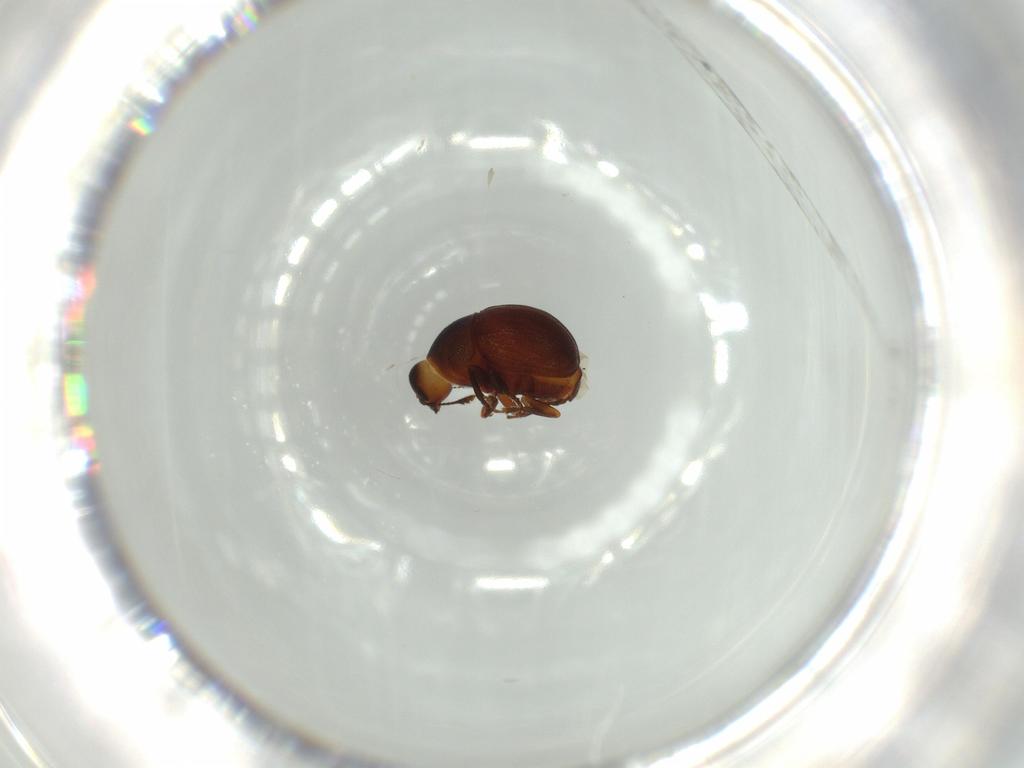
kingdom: Animalia
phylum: Arthropoda
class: Insecta
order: Coleoptera
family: Anthribidae
